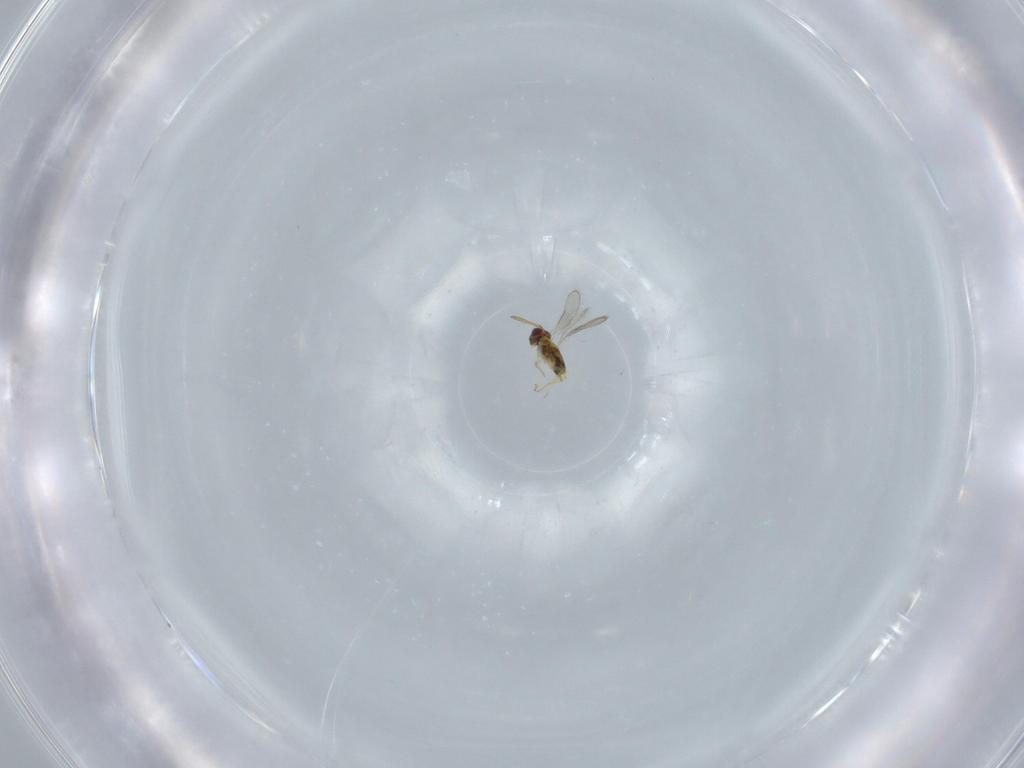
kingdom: Animalia
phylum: Arthropoda
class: Insecta
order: Hymenoptera
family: Aphelinidae
